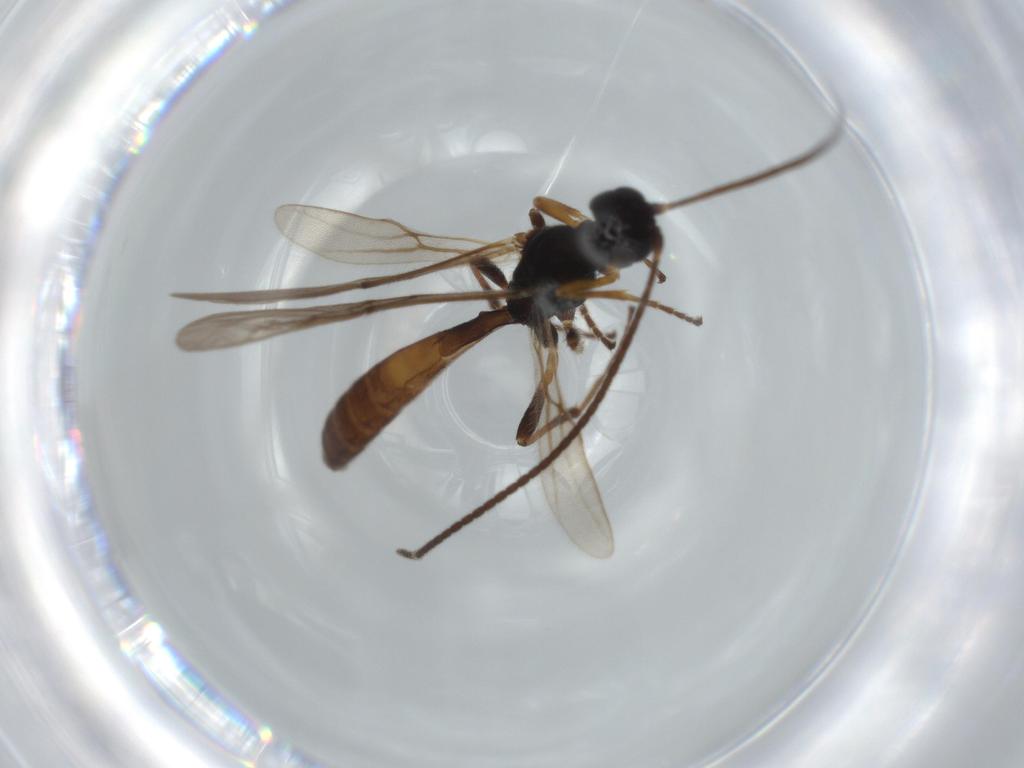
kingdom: Animalia
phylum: Arthropoda
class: Insecta
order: Hymenoptera
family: Braconidae
